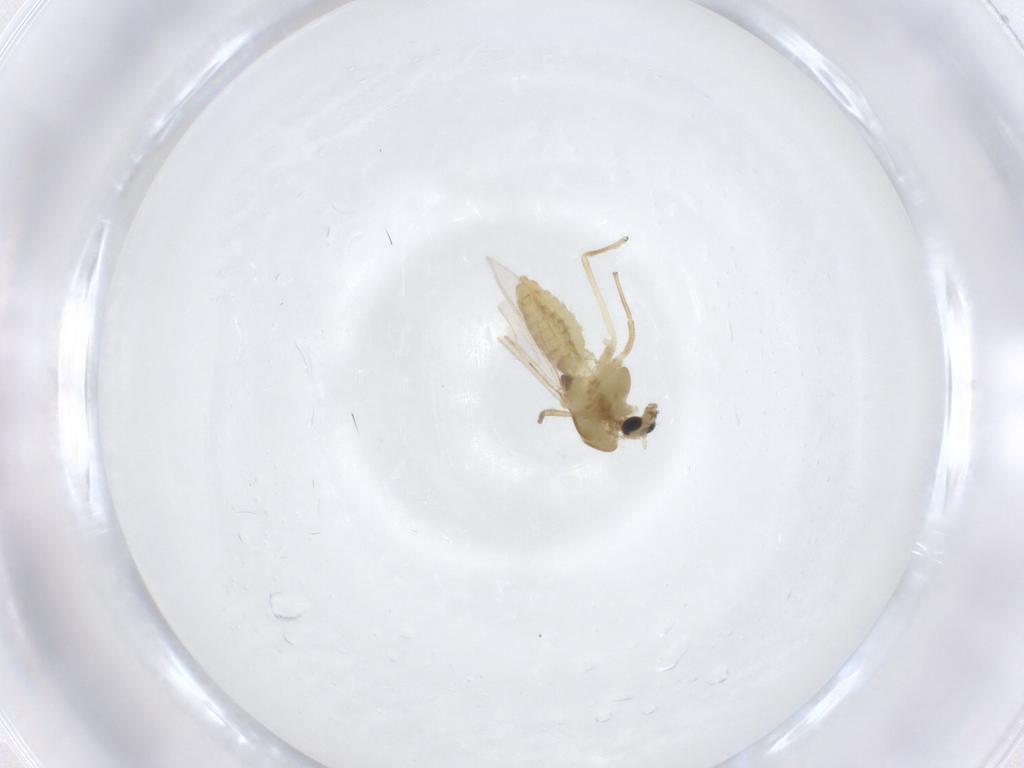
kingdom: Animalia
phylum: Arthropoda
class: Insecta
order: Diptera
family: Chironomidae
